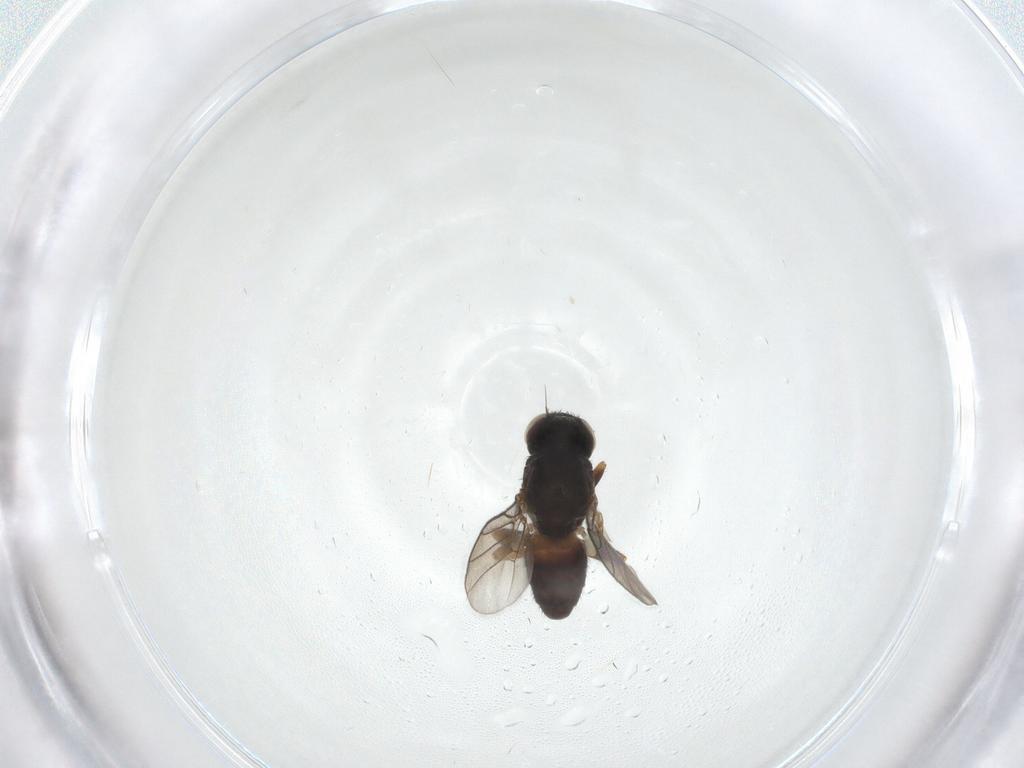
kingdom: Animalia
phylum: Arthropoda
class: Insecta
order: Diptera
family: Chloropidae
